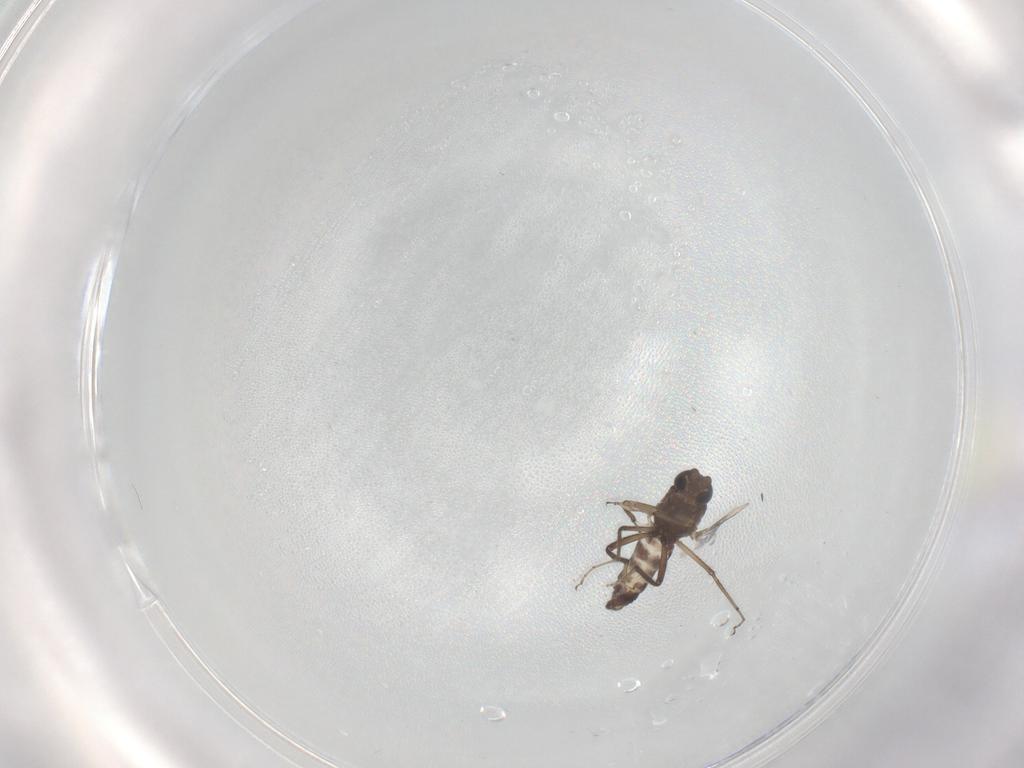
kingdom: Animalia
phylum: Arthropoda
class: Insecta
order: Diptera
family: Ceratopogonidae
